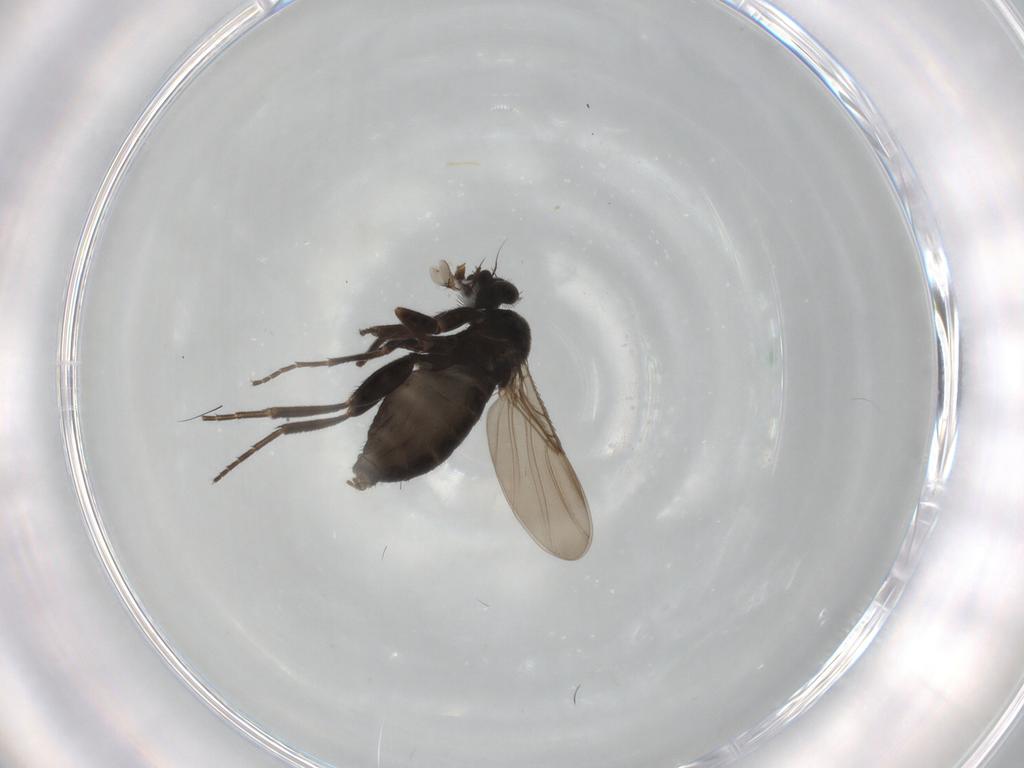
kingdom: Animalia
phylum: Arthropoda
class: Insecta
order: Diptera
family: Phoridae
